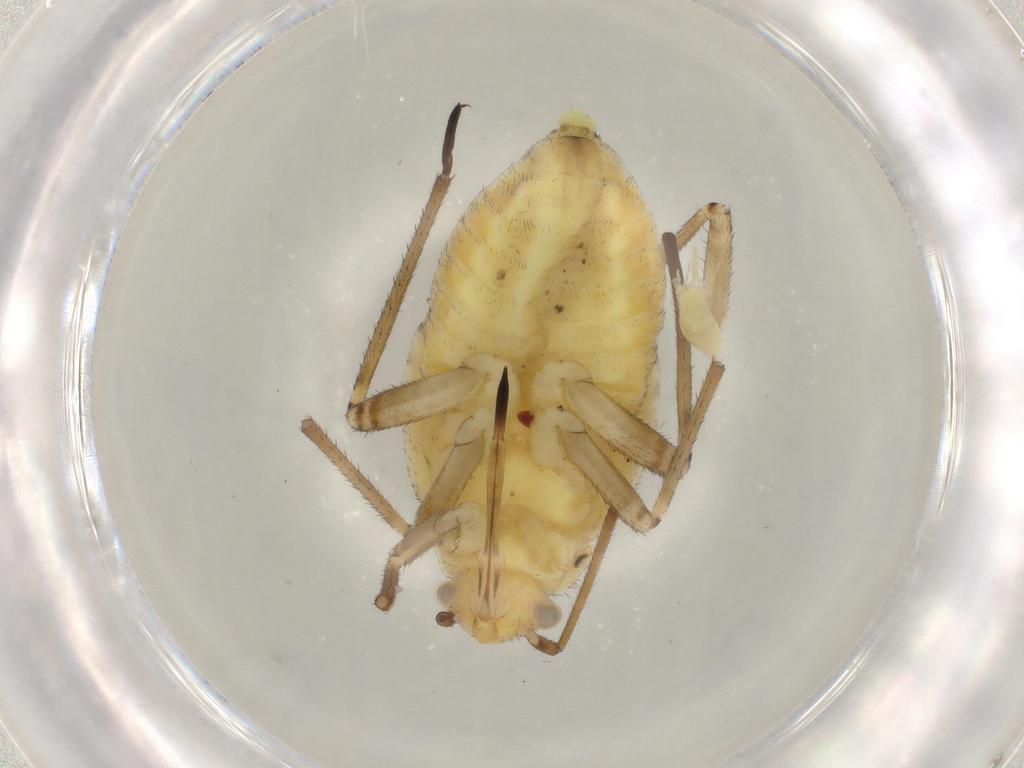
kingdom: Animalia
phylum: Arthropoda
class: Insecta
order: Hemiptera
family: Miridae
